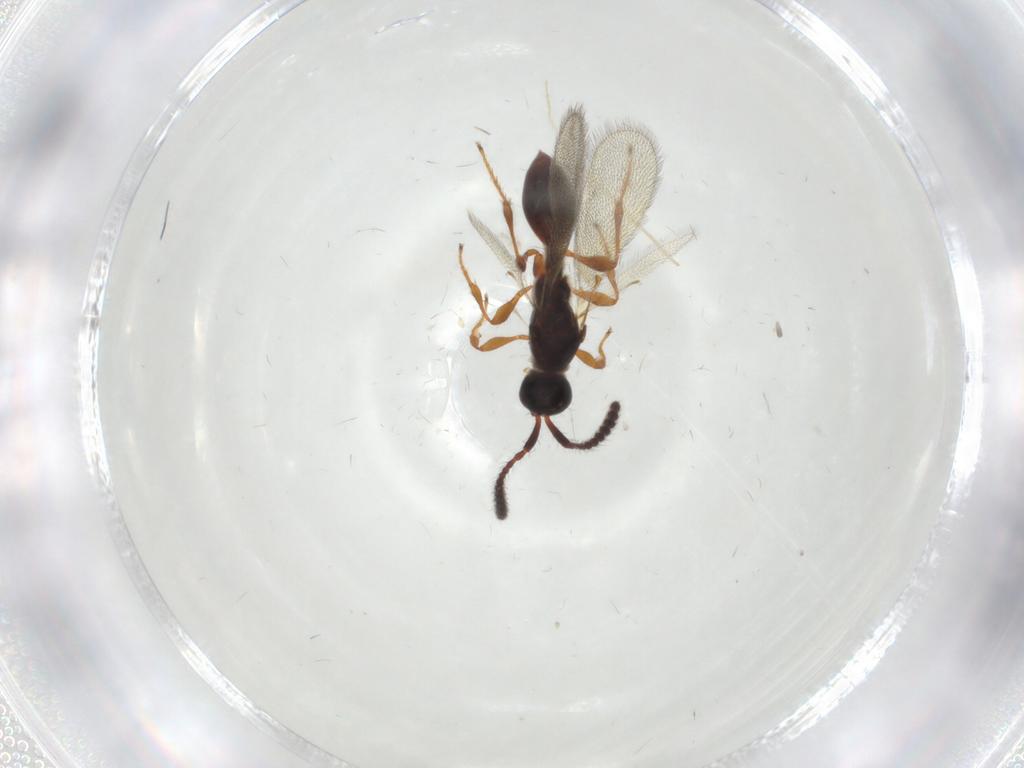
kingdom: Animalia
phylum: Arthropoda
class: Insecta
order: Hymenoptera
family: Diapriidae
